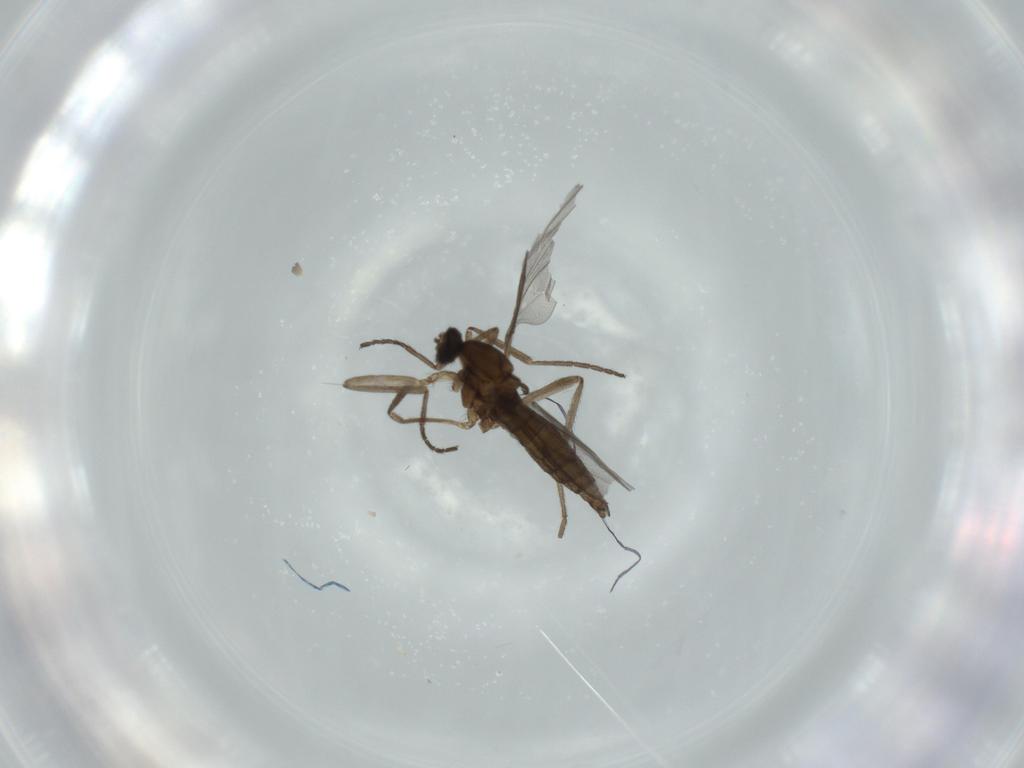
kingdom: Animalia
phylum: Arthropoda
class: Insecta
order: Diptera
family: Cecidomyiidae
